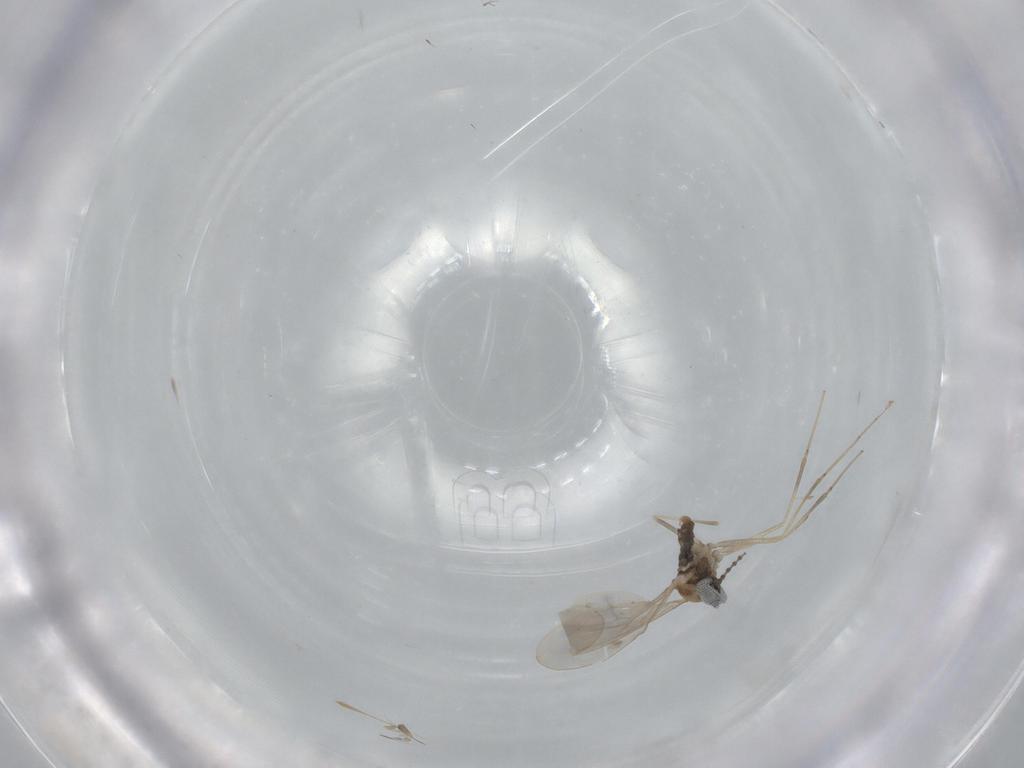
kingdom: Animalia
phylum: Arthropoda
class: Insecta
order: Diptera
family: Cecidomyiidae
